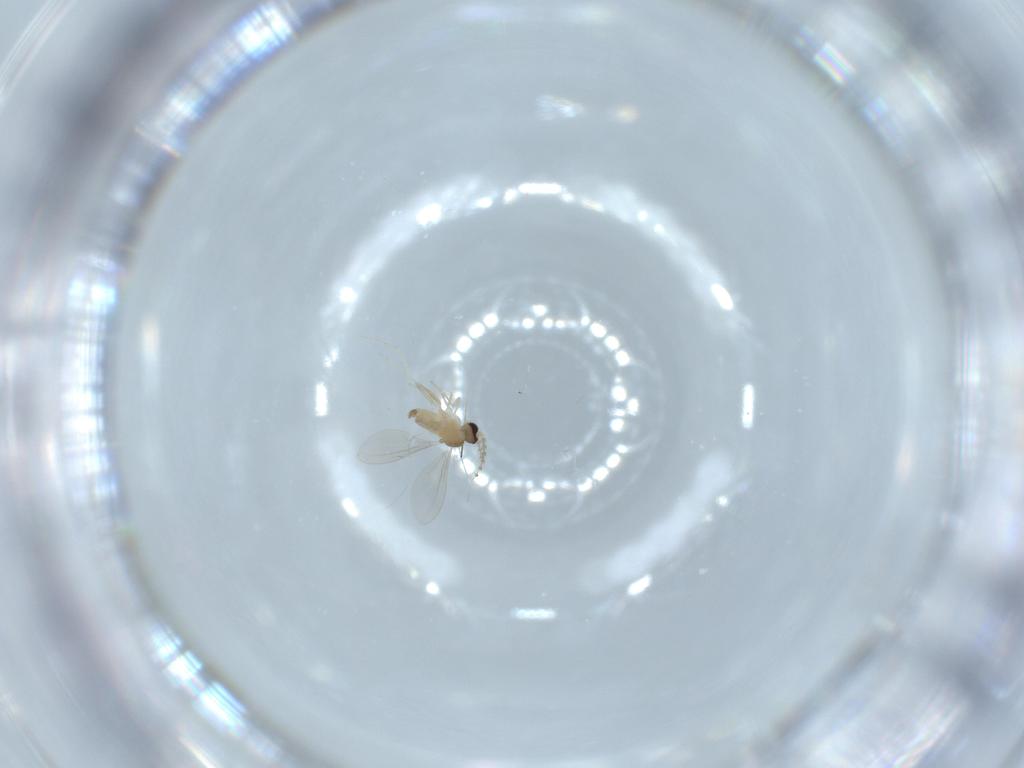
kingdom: Animalia
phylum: Arthropoda
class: Insecta
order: Diptera
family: Cecidomyiidae
